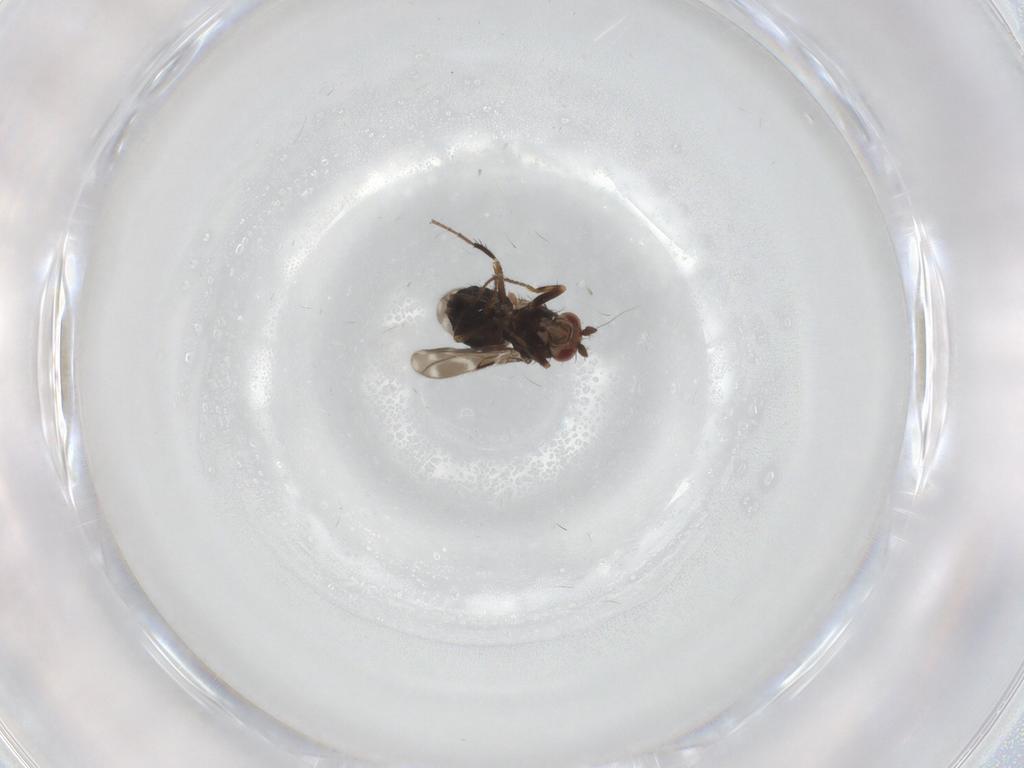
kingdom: Animalia
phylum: Arthropoda
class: Insecta
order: Diptera
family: Sphaeroceridae
